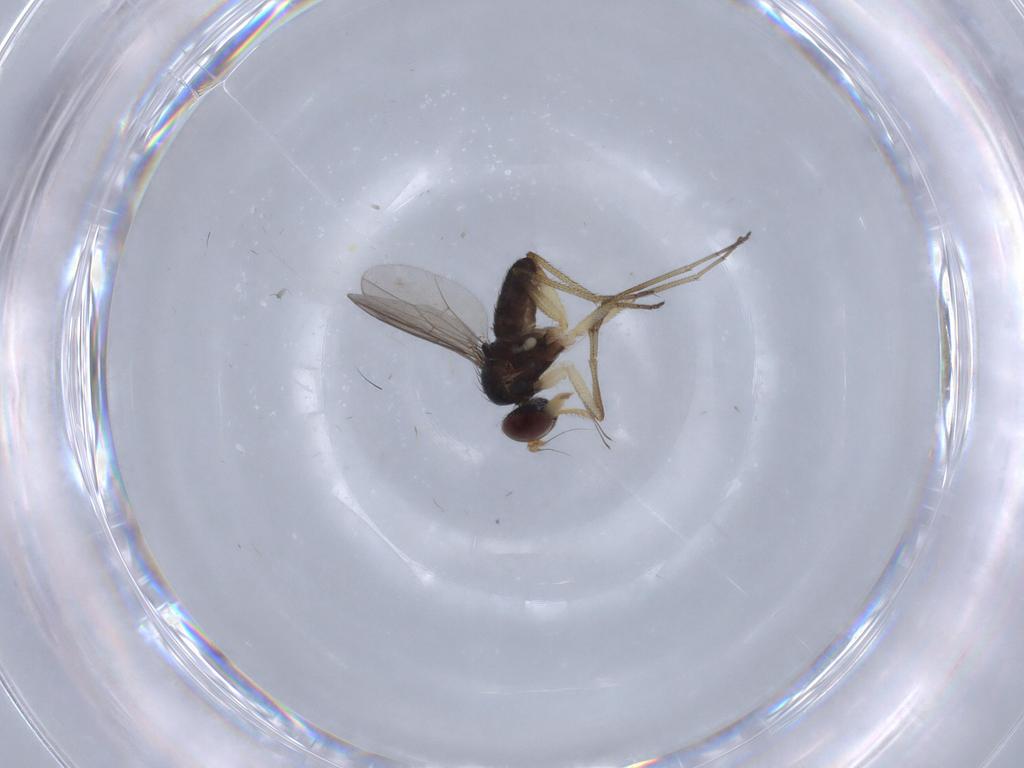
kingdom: Animalia
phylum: Arthropoda
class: Insecta
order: Diptera
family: Dolichopodidae
